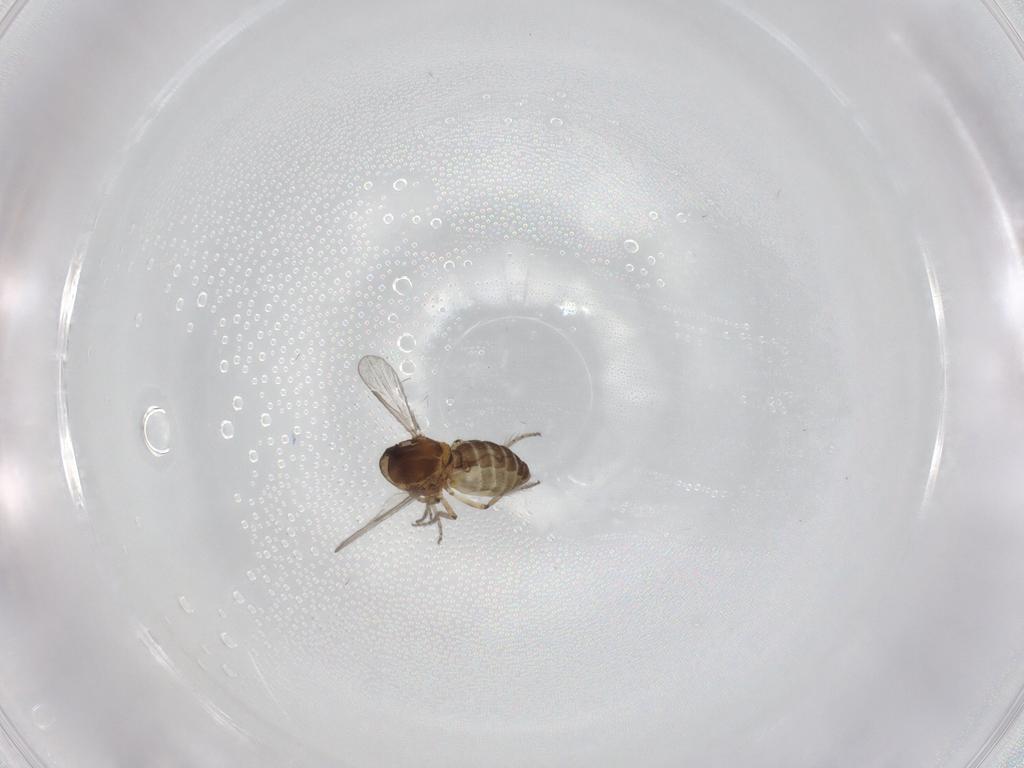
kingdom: Animalia
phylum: Arthropoda
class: Insecta
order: Diptera
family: Ceratopogonidae
